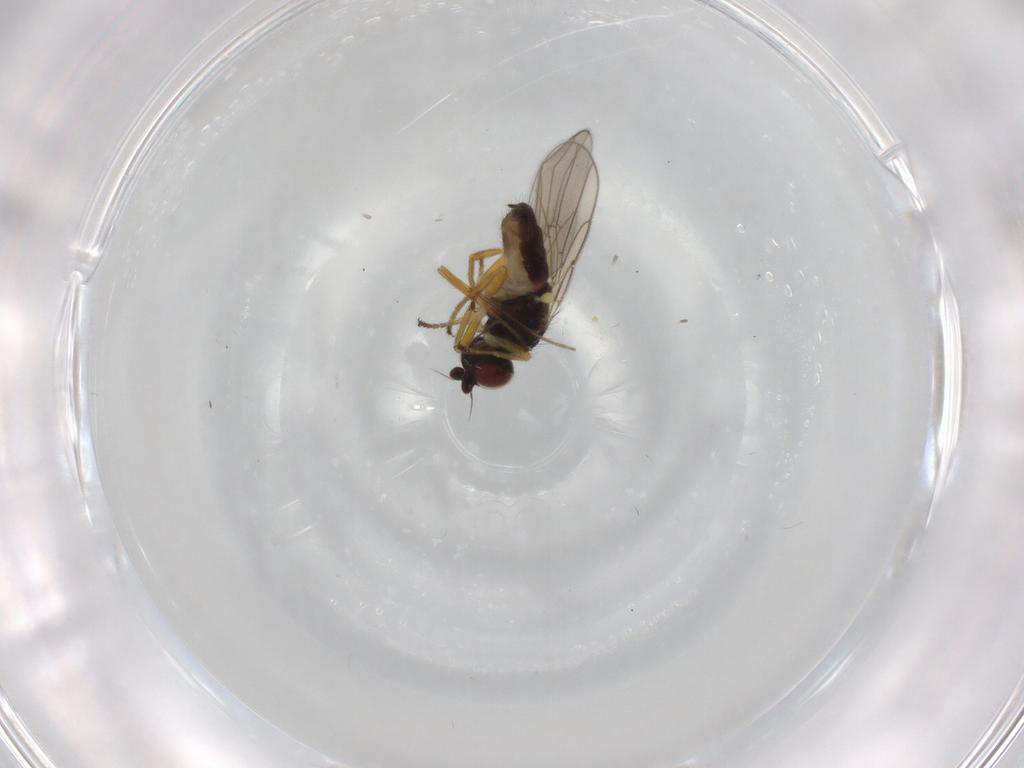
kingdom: Animalia
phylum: Arthropoda
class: Insecta
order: Diptera
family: Chloropidae
